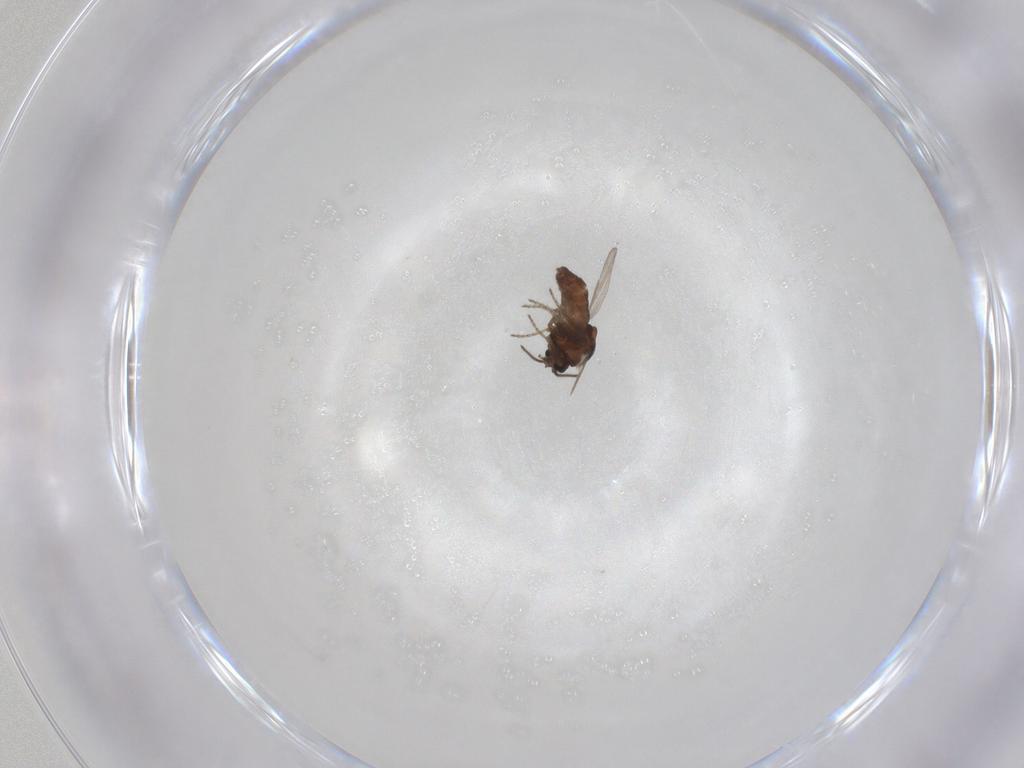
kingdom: Animalia
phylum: Arthropoda
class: Insecta
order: Diptera
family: Ceratopogonidae
